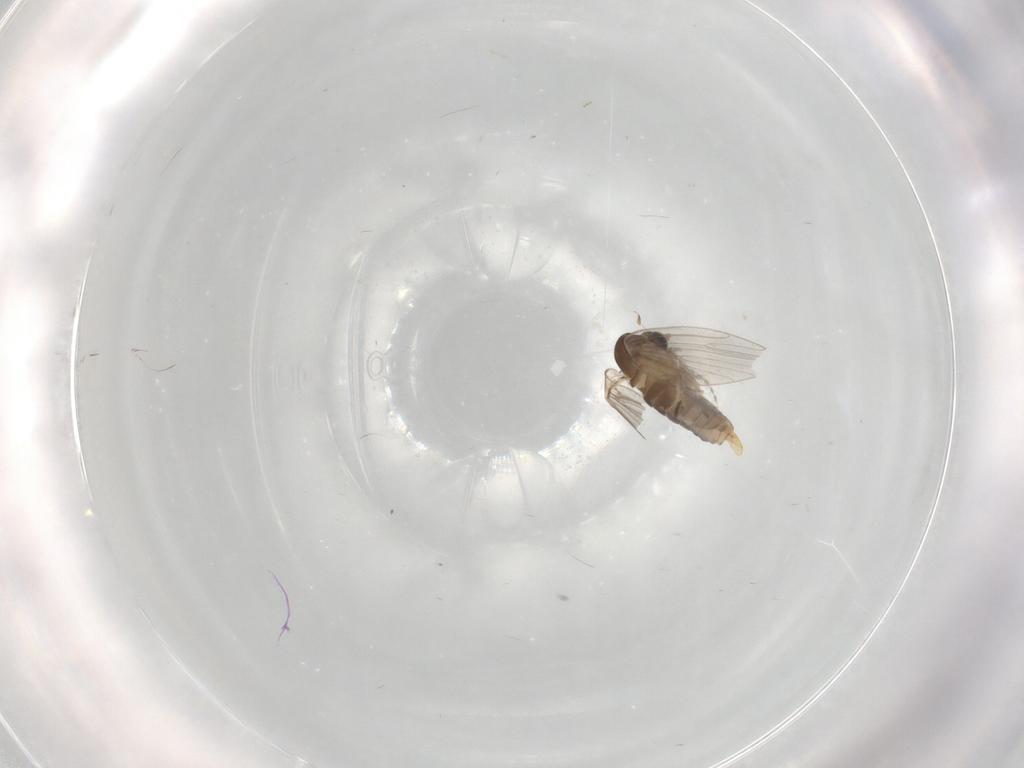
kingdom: Animalia
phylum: Arthropoda
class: Insecta
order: Diptera
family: Psychodidae
